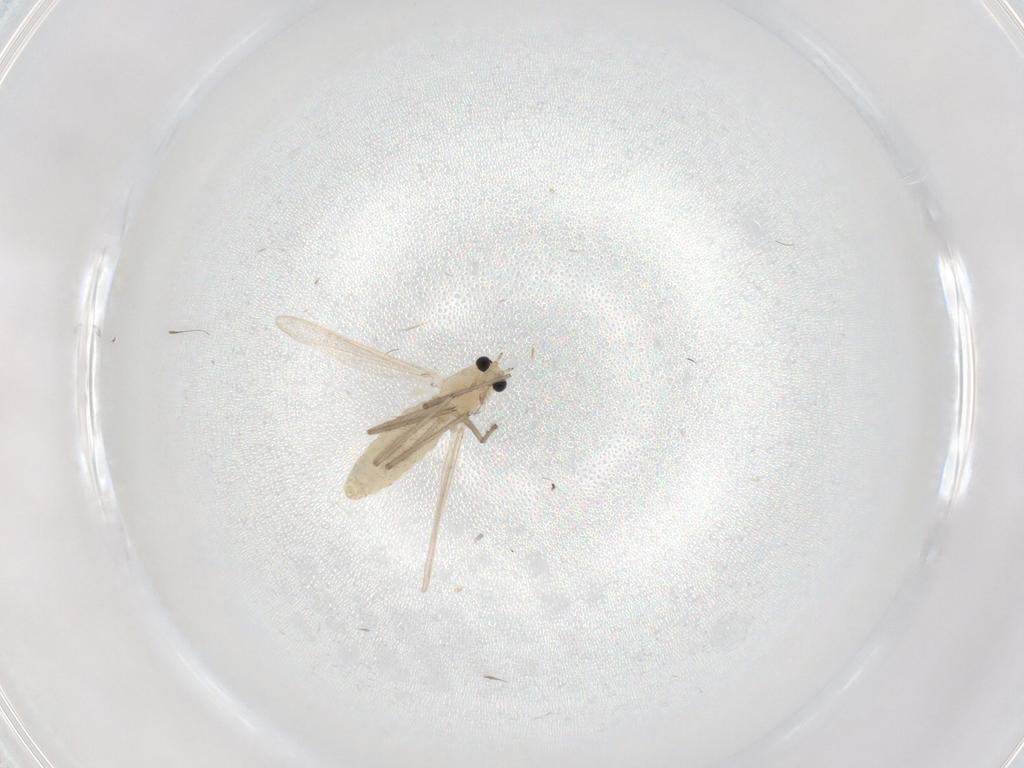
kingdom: Animalia
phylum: Arthropoda
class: Insecta
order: Diptera
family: Chironomidae
